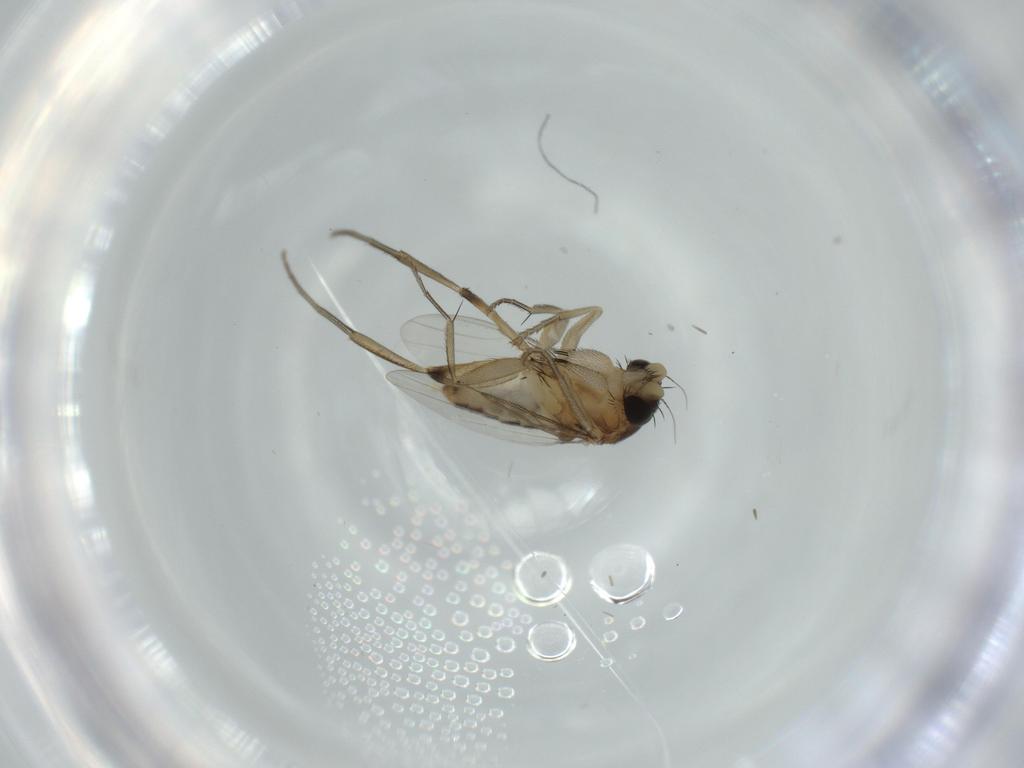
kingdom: Animalia
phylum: Arthropoda
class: Insecta
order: Diptera
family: Phoridae
